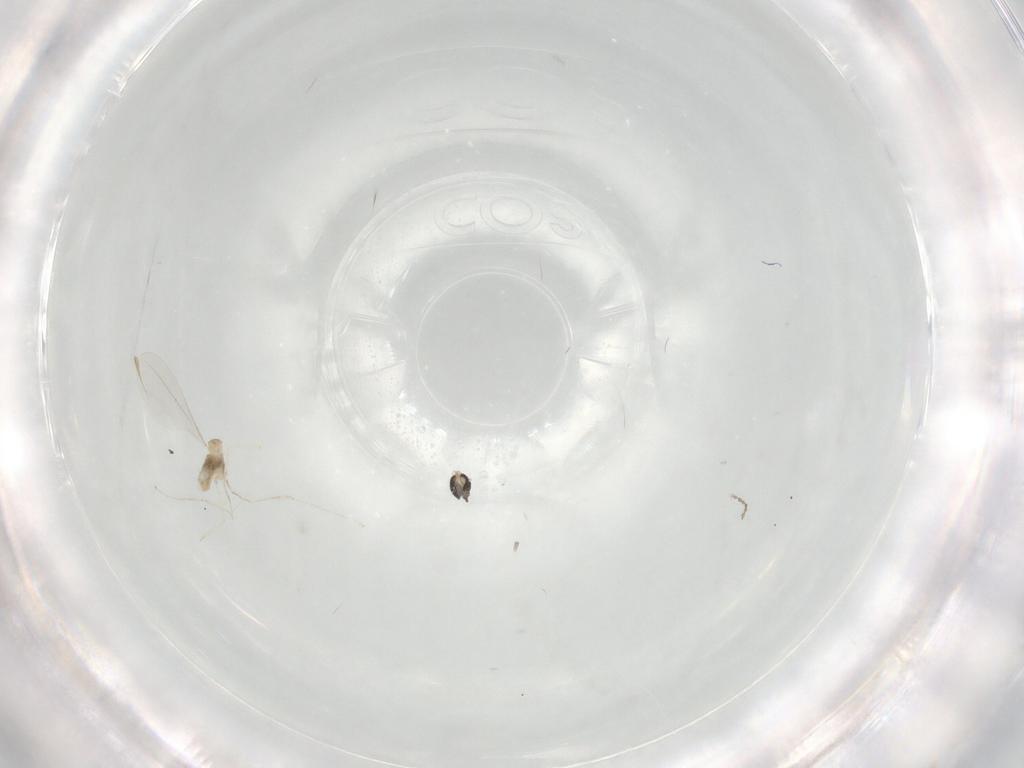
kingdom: Animalia
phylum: Arthropoda
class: Insecta
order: Diptera
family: Cecidomyiidae
